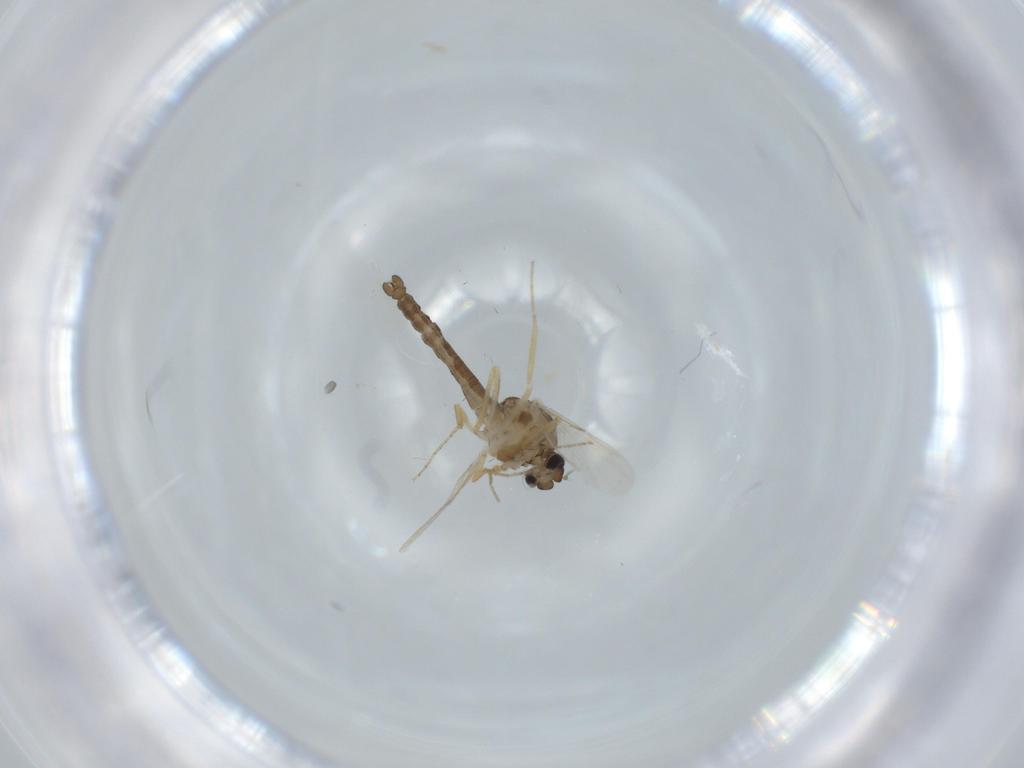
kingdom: Animalia
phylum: Arthropoda
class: Insecta
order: Diptera
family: Ceratopogonidae
